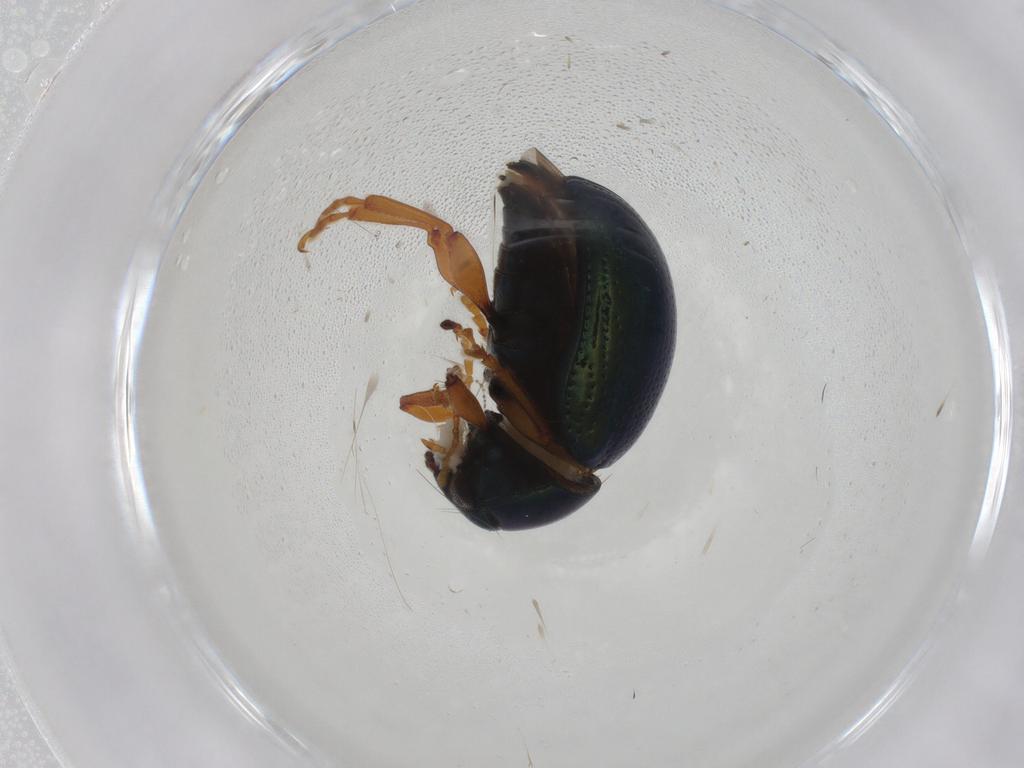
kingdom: Animalia
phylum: Arthropoda
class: Insecta
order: Coleoptera
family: Chrysomelidae
